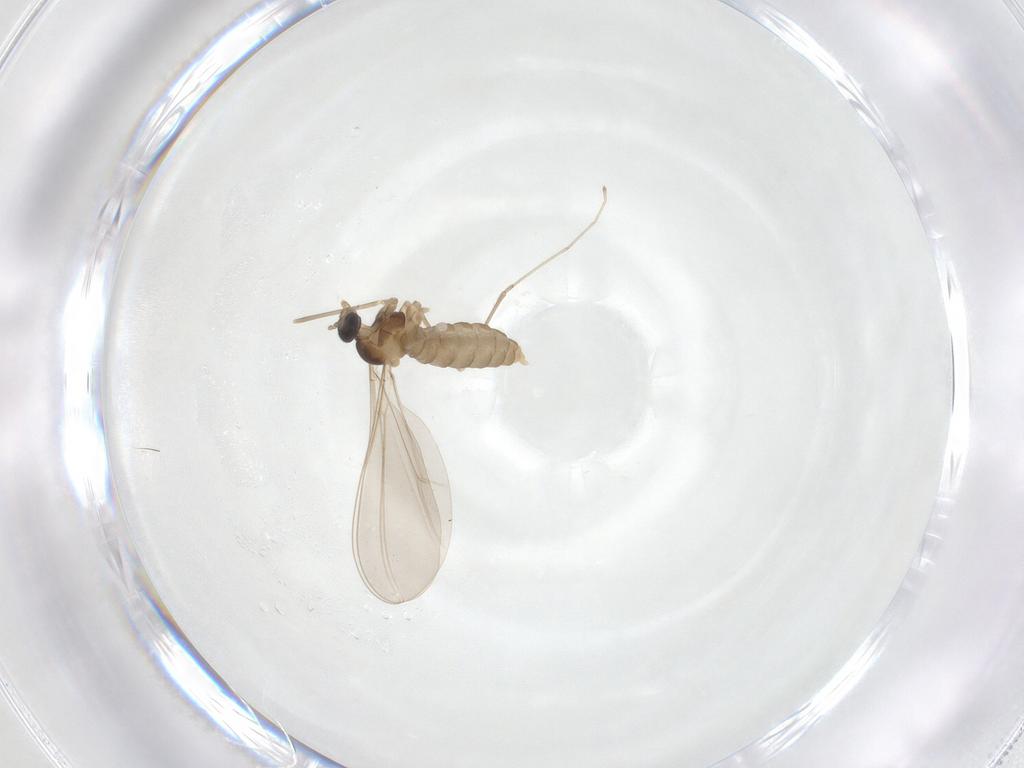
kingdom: Animalia
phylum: Arthropoda
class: Insecta
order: Diptera
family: Cecidomyiidae
